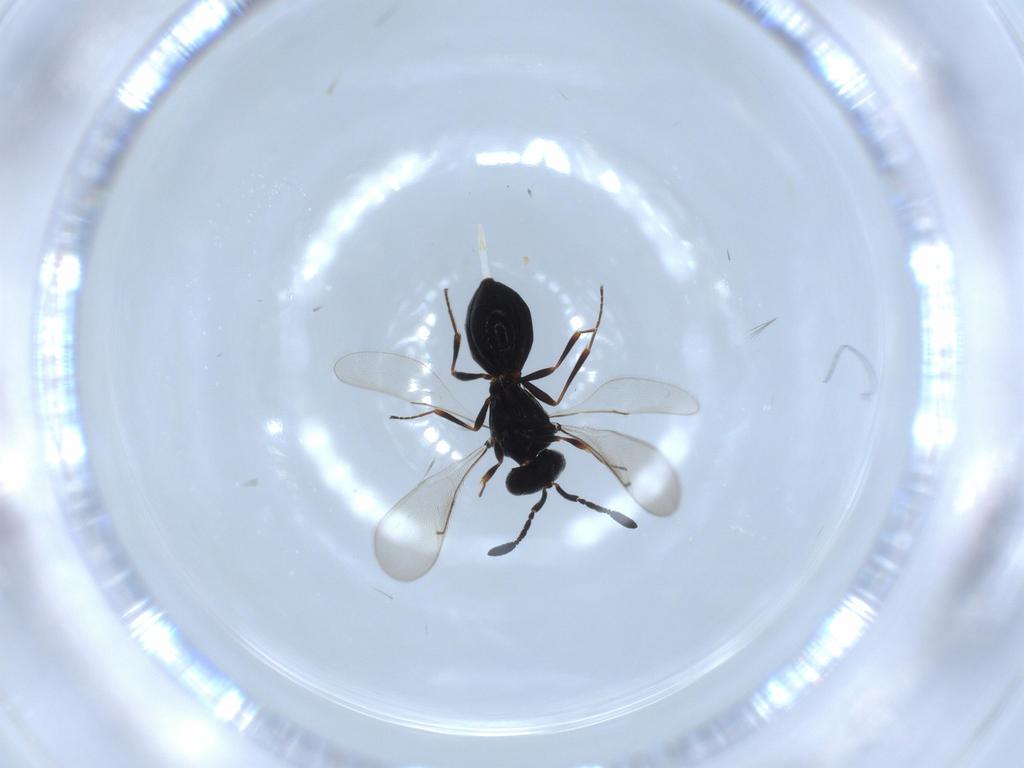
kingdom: Animalia
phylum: Arthropoda
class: Insecta
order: Hymenoptera
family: Scelionidae
